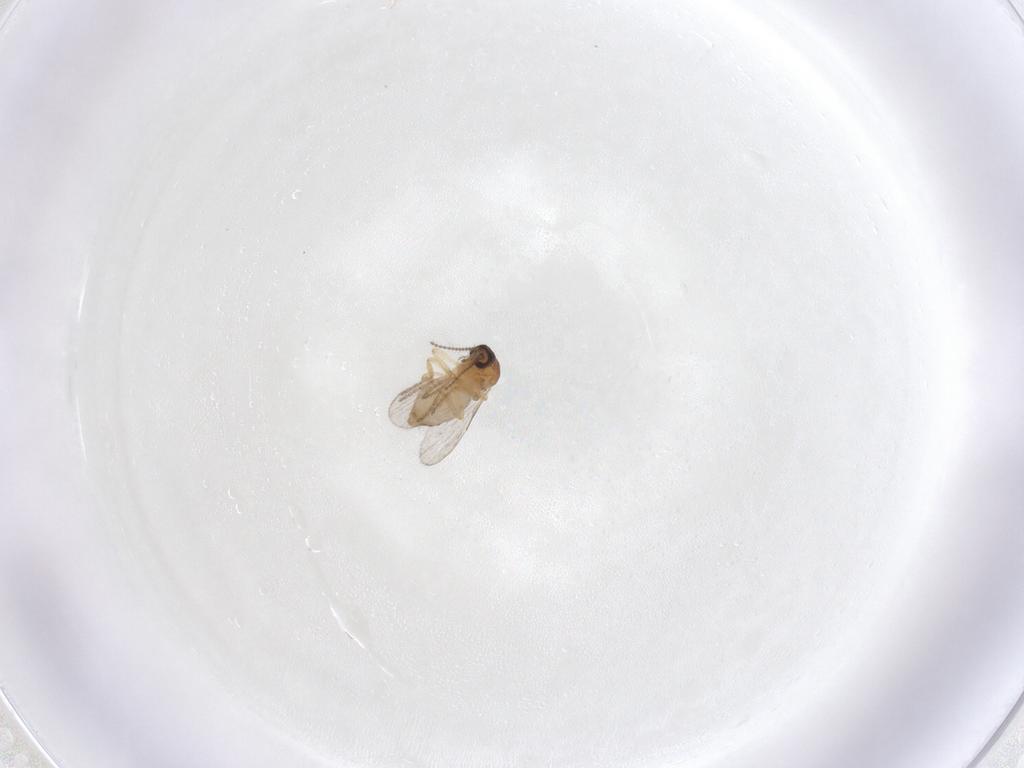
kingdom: Animalia
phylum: Arthropoda
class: Insecta
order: Diptera
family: Ceratopogonidae
